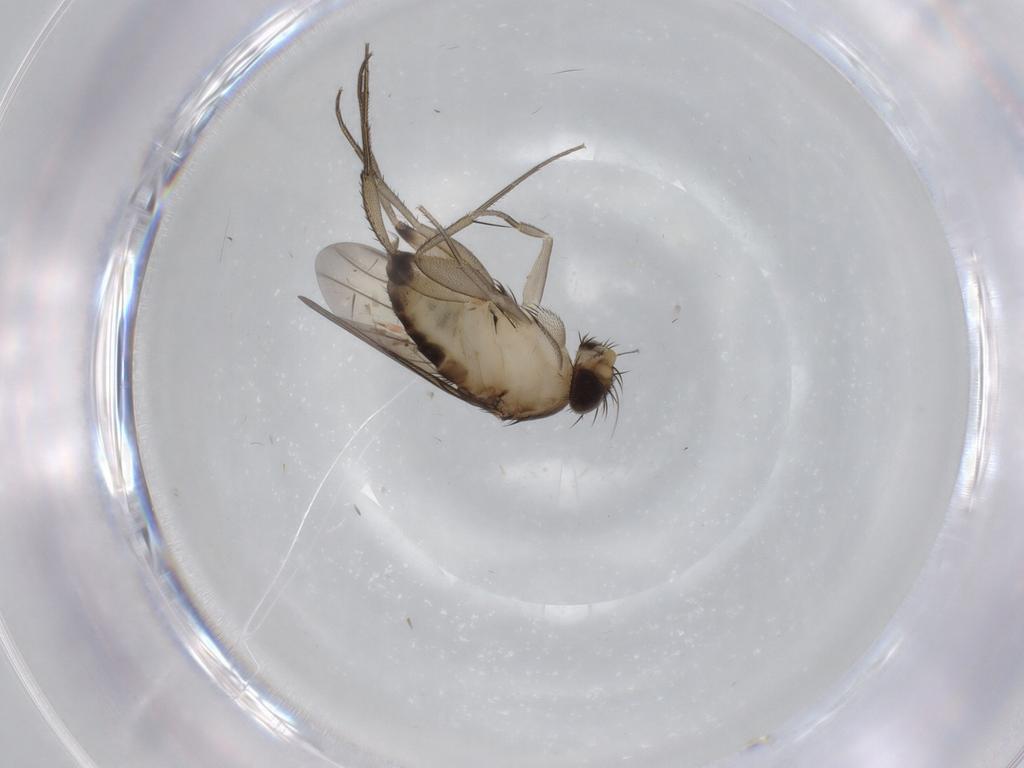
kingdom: Animalia
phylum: Arthropoda
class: Insecta
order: Diptera
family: Phoridae
